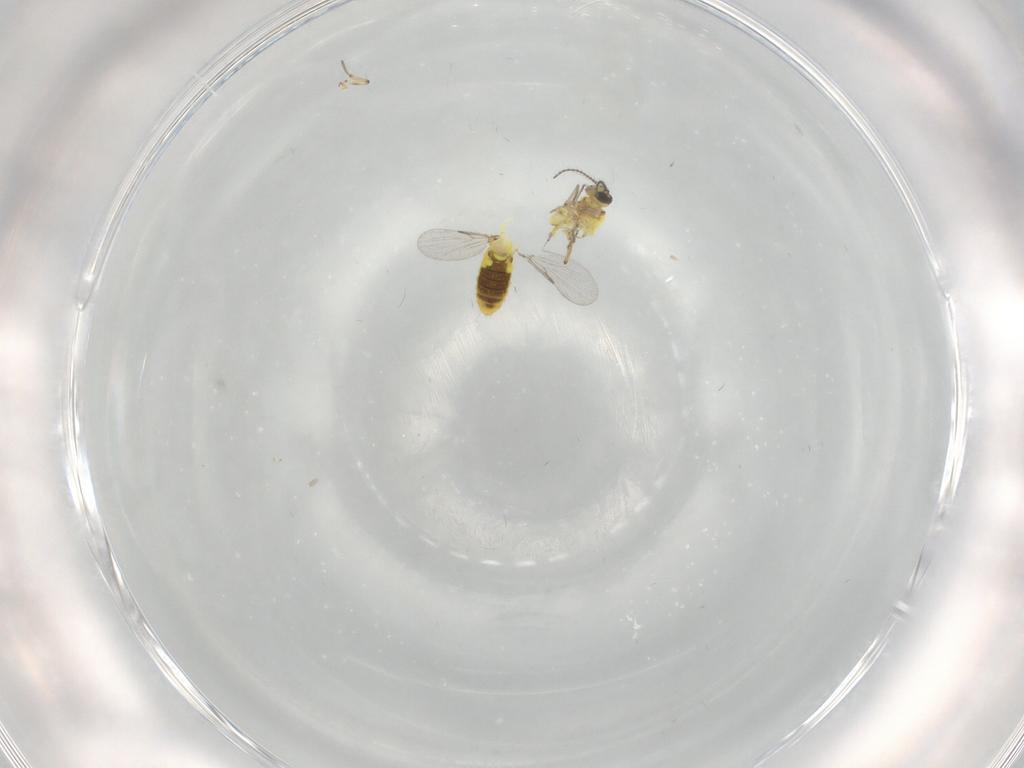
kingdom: Animalia
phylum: Arthropoda
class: Insecta
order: Diptera
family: Ceratopogonidae
